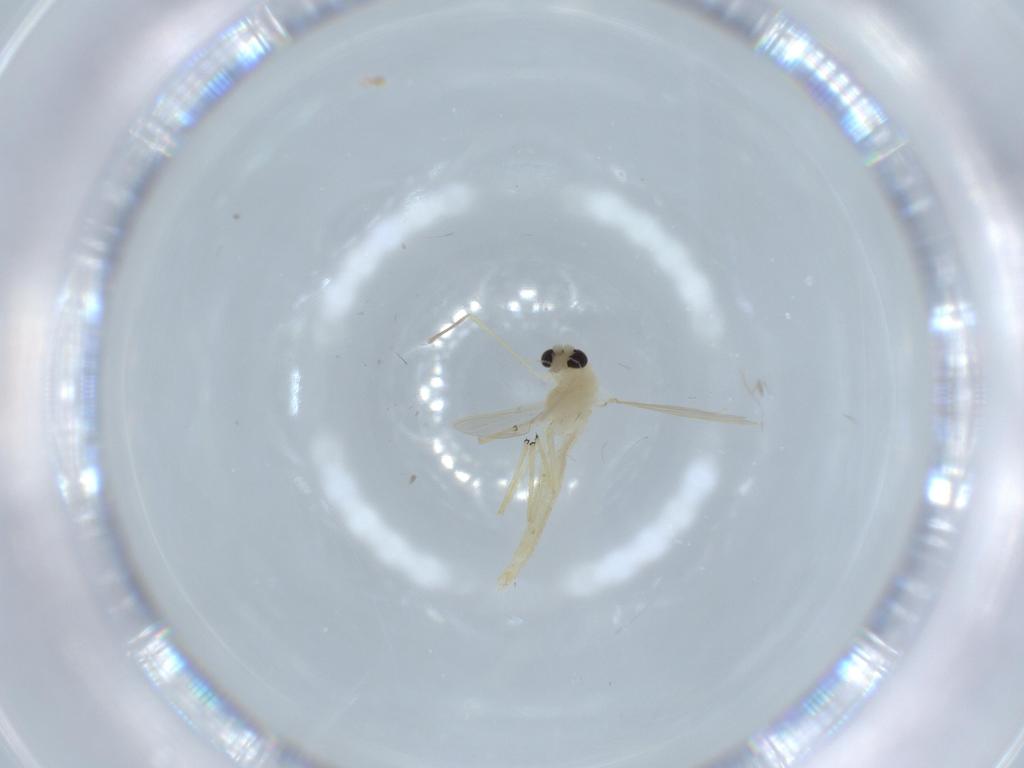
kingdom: Animalia
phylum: Arthropoda
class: Insecta
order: Diptera
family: Chironomidae
